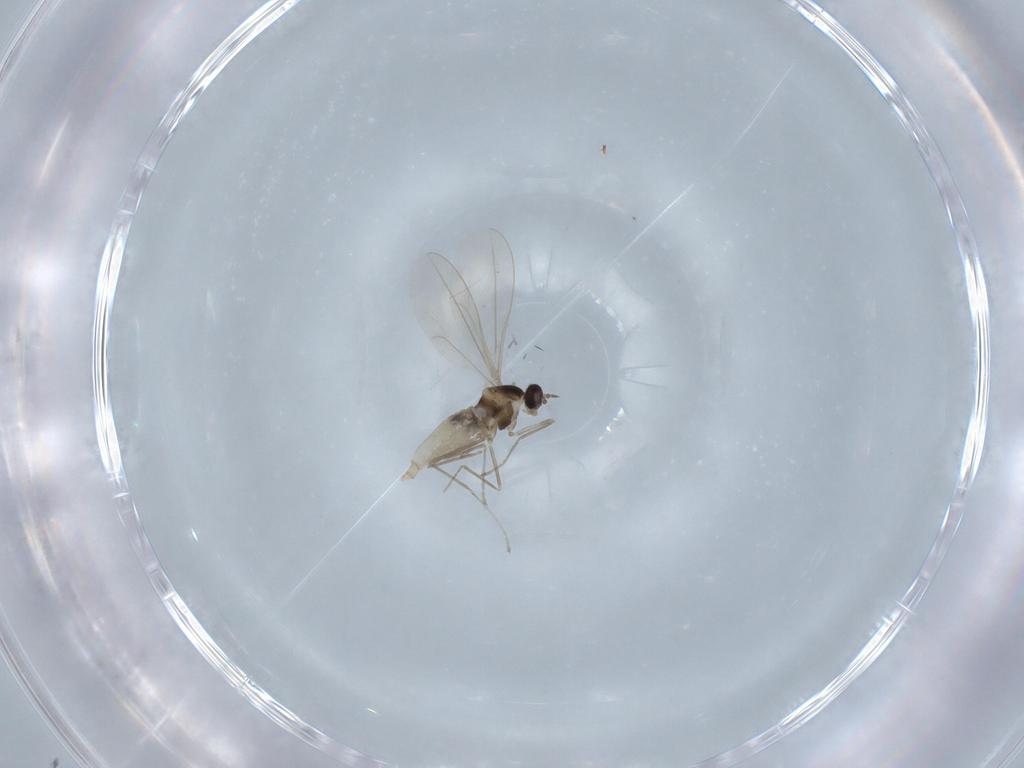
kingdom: Animalia
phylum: Arthropoda
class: Insecta
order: Diptera
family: Cecidomyiidae
